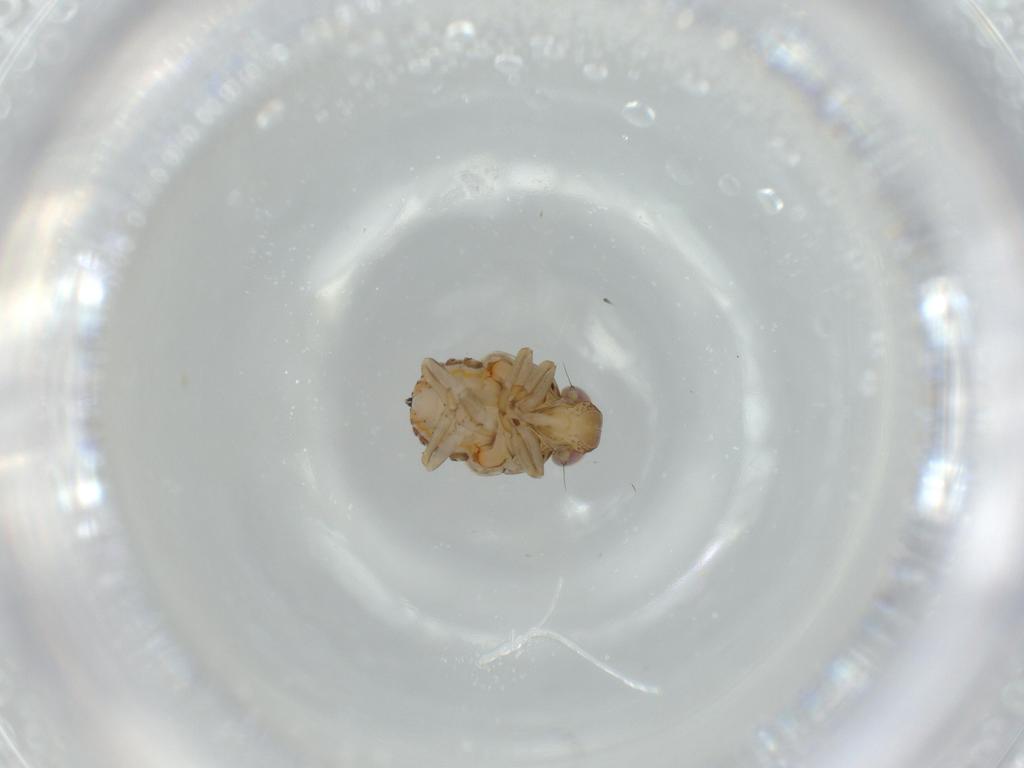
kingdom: Animalia
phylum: Arthropoda
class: Insecta
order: Hemiptera
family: Issidae
